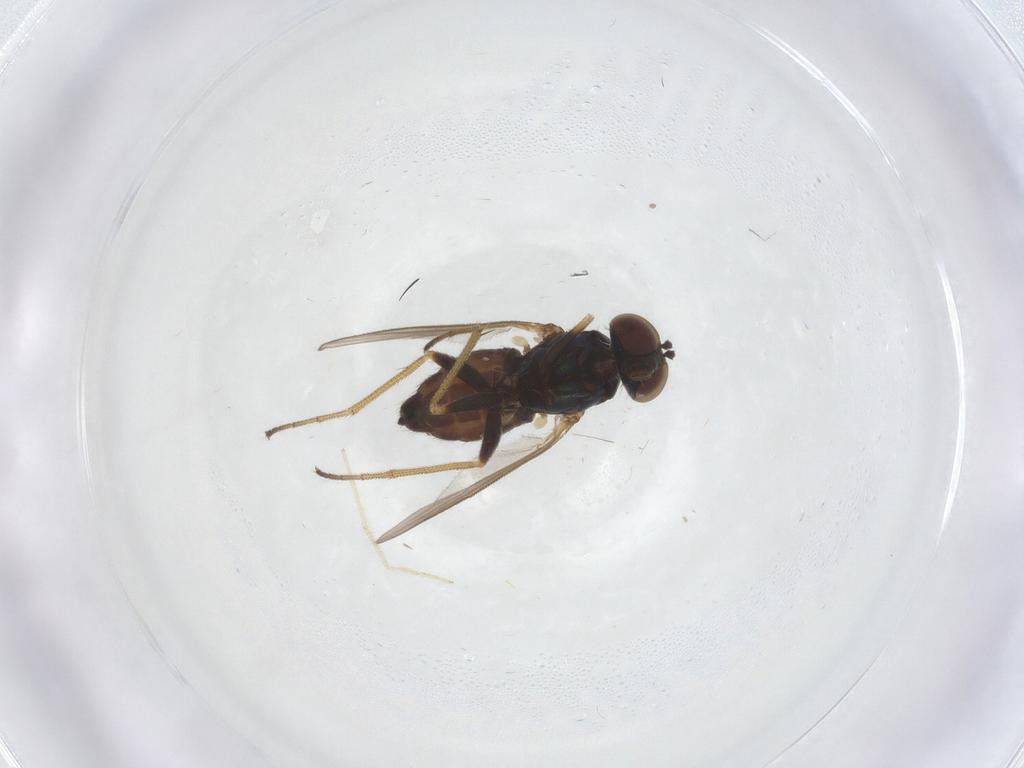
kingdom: Animalia
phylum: Arthropoda
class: Insecta
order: Diptera
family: Dolichopodidae
